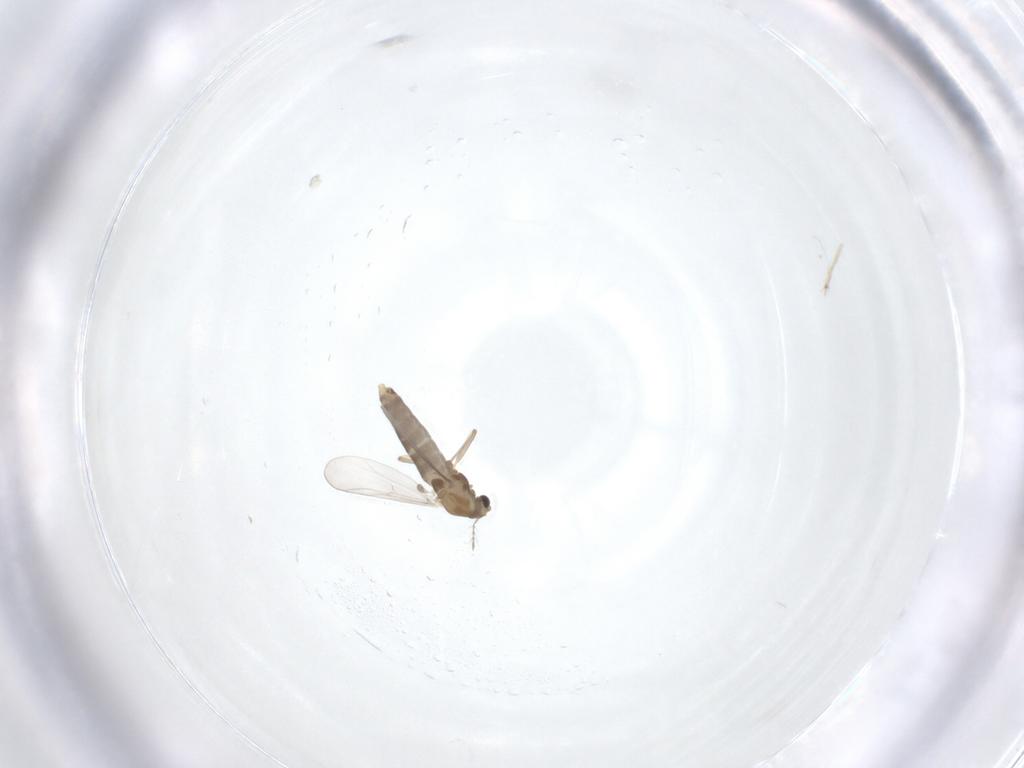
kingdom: Animalia
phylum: Arthropoda
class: Insecta
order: Diptera
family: Chironomidae
